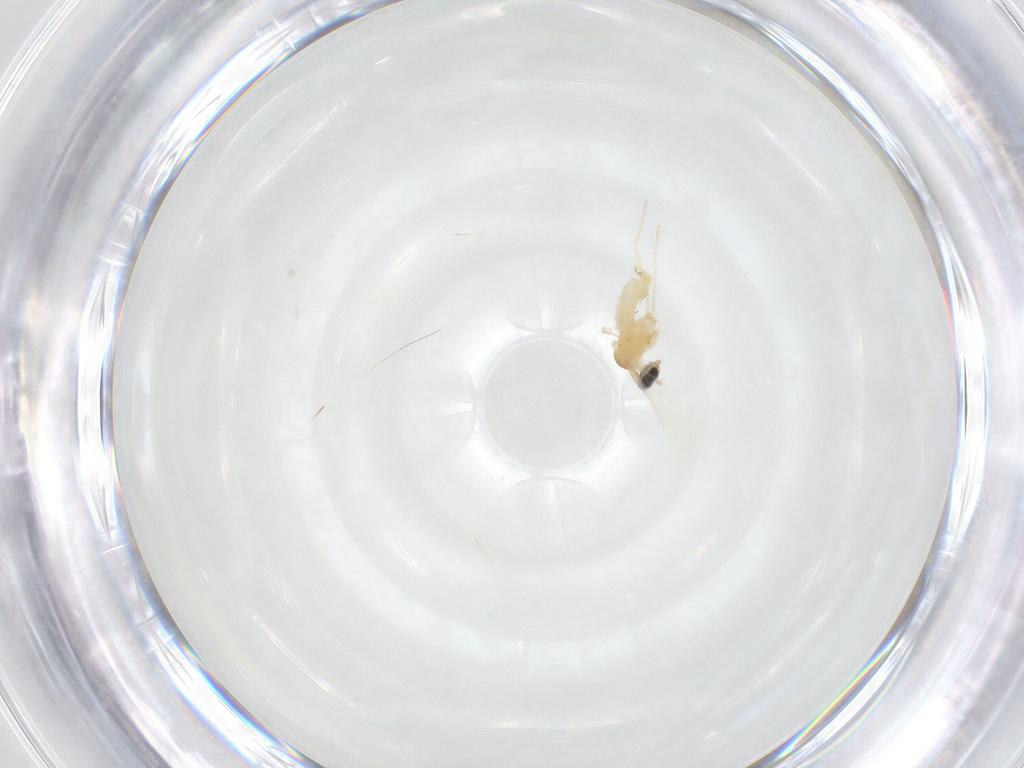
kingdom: Animalia
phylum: Arthropoda
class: Insecta
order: Diptera
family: Cecidomyiidae
